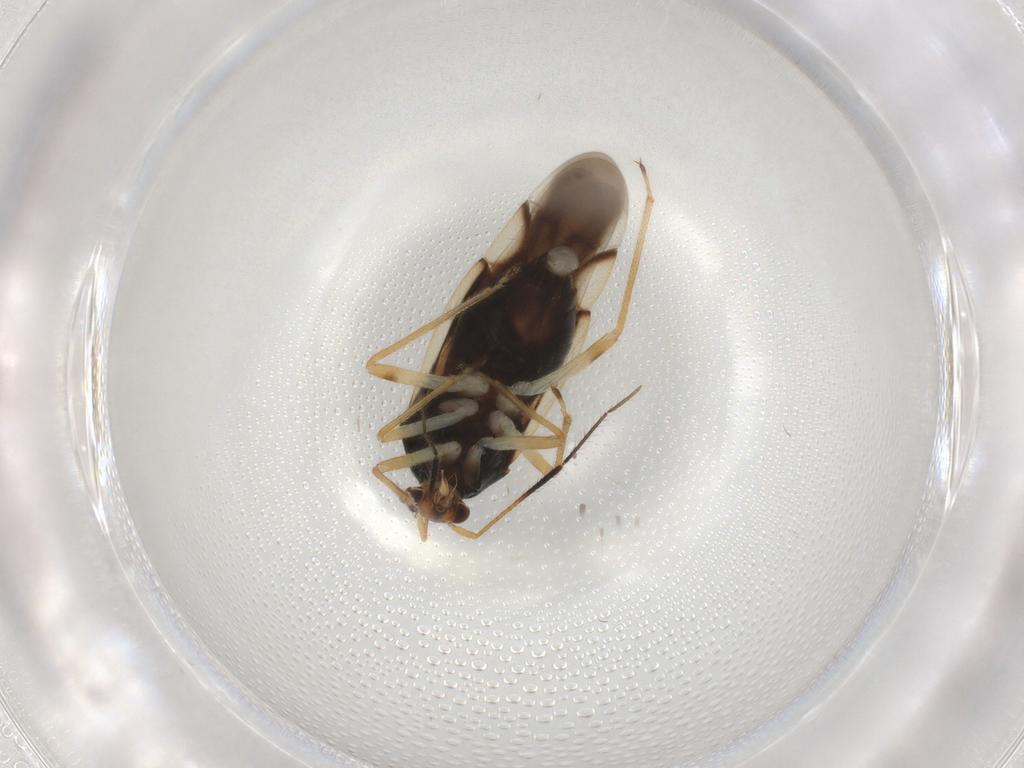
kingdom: Animalia
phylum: Arthropoda
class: Insecta
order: Hemiptera
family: Miridae
